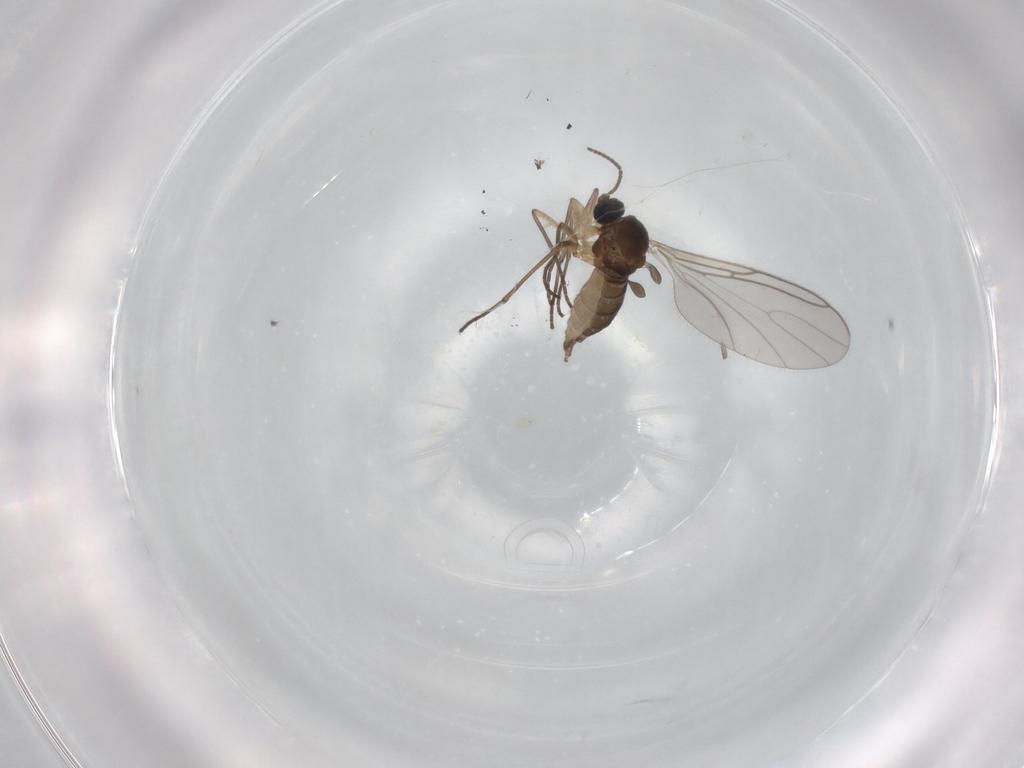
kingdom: Animalia
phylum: Arthropoda
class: Insecta
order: Diptera
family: Sciaridae
